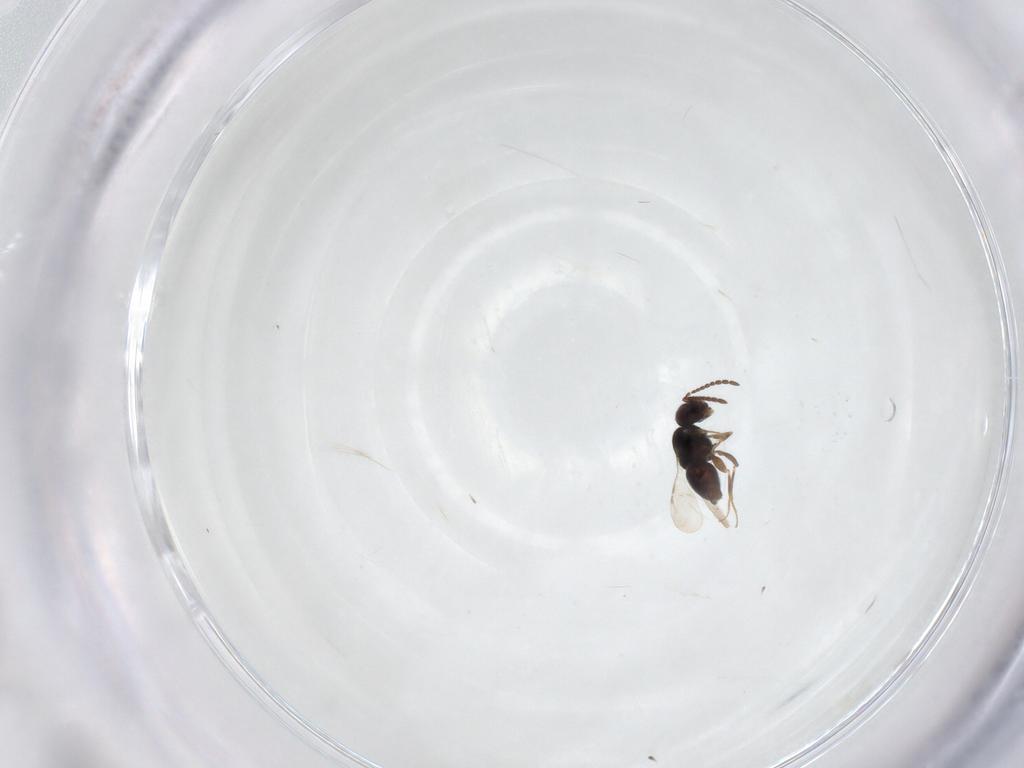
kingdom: Animalia
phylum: Arthropoda
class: Insecta
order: Hymenoptera
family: Ceraphronidae
